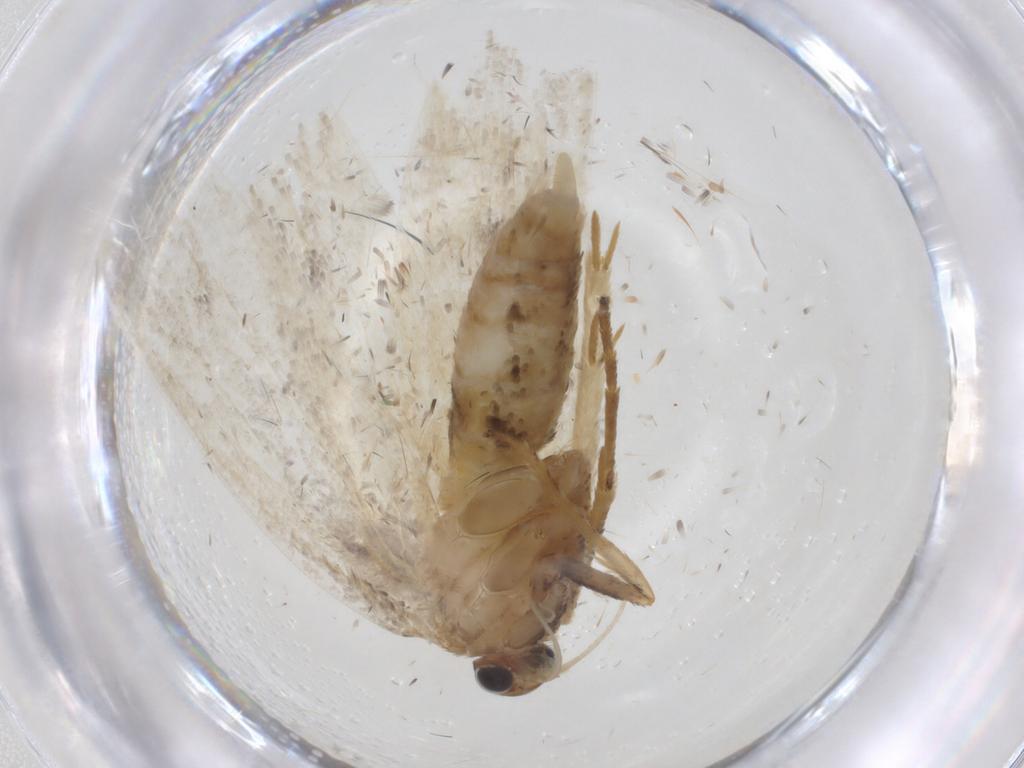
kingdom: Animalia
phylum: Arthropoda
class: Insecta
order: Lepidoptera
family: Depressariidae
